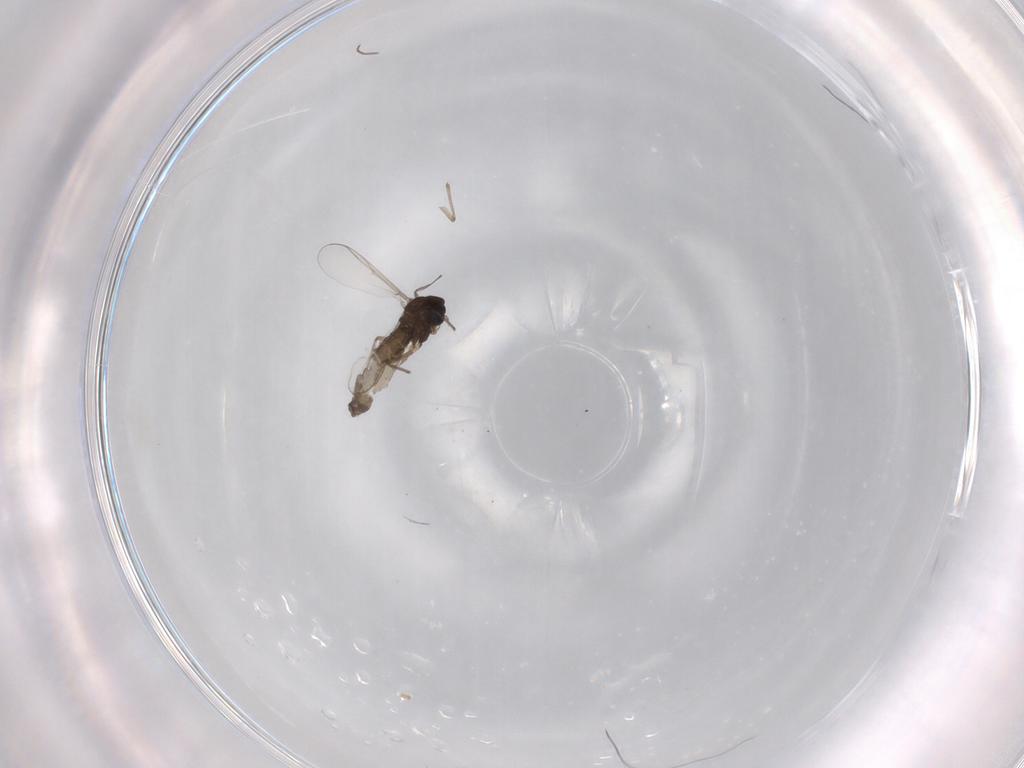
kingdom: Animalia
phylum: Arthropoda
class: Insecta
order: Diptera
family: Chironomidae
